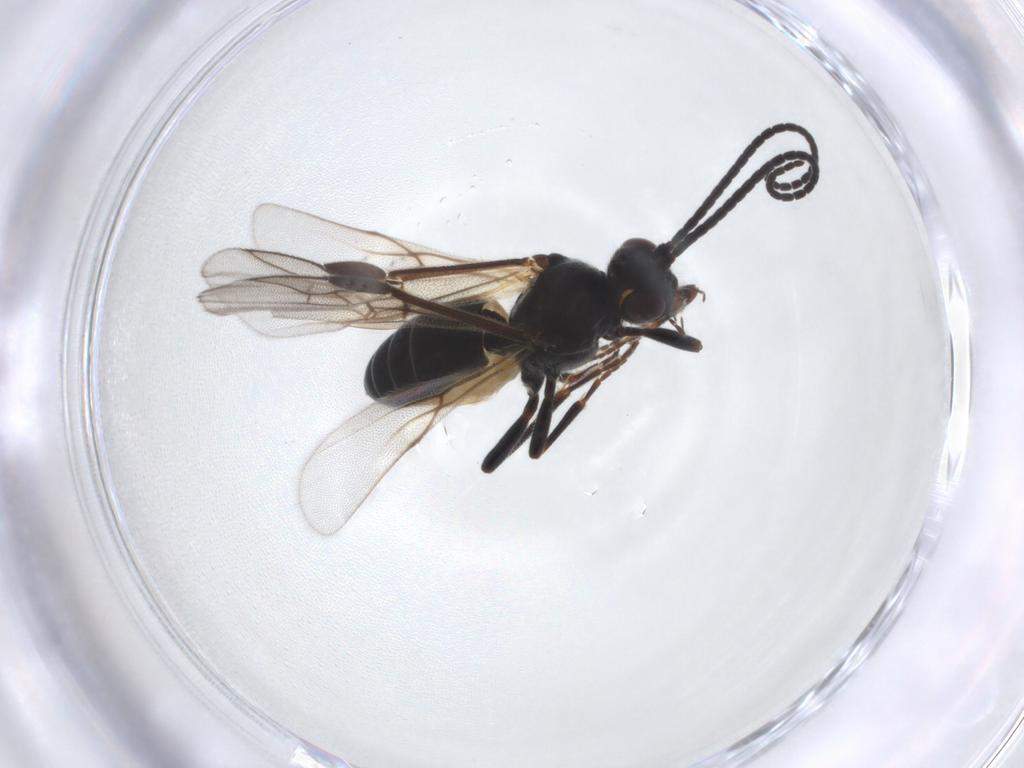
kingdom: Animalia
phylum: Arthropoda
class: Insecta
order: Hymenoptera
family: Braconidae
